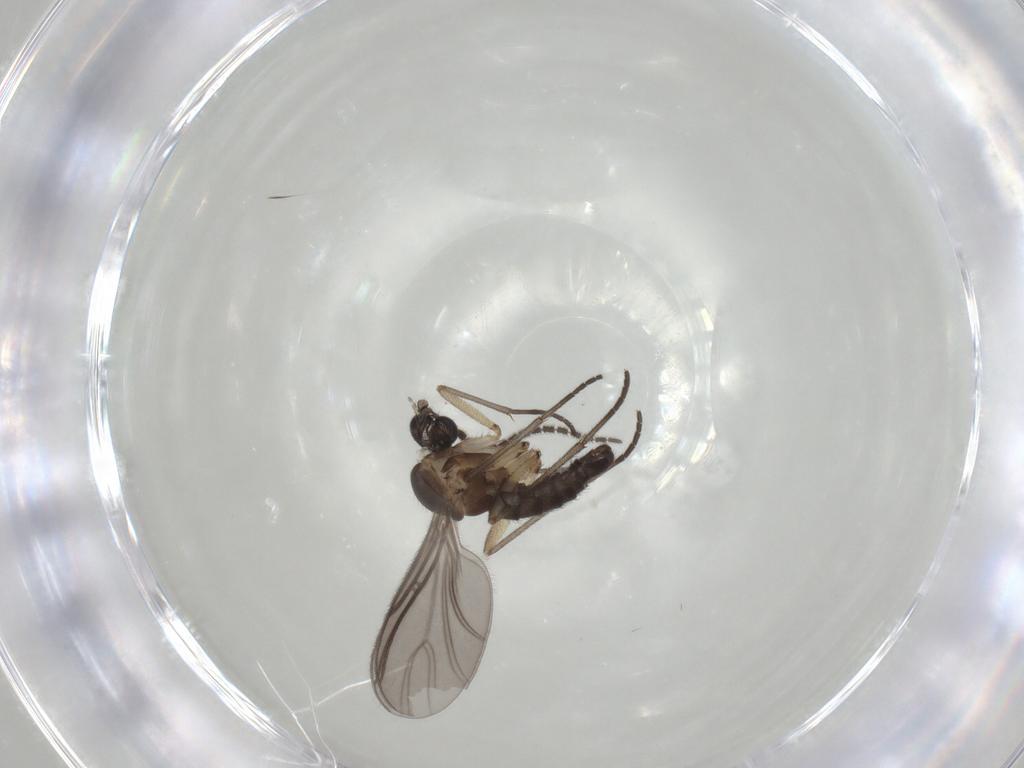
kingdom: Animalia
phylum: Arthropoda
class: Insecta
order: Diptera
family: Sciaridae
